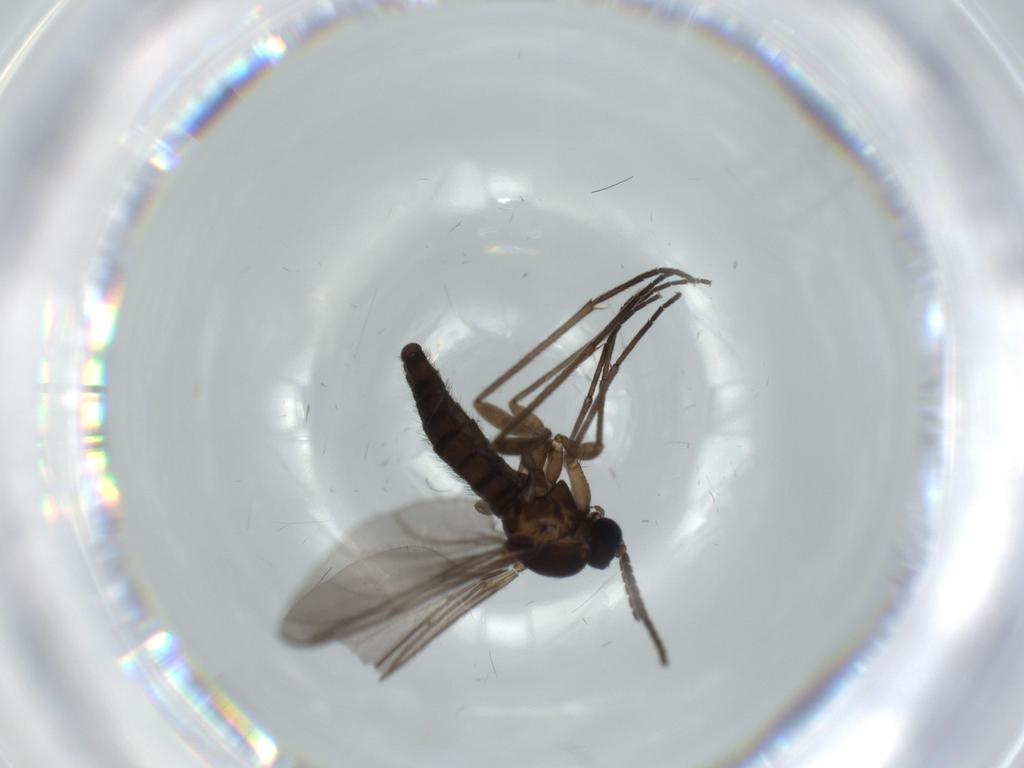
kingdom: Animalia
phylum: Arthropoda
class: Insecta
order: Diptera
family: Sciaridae
